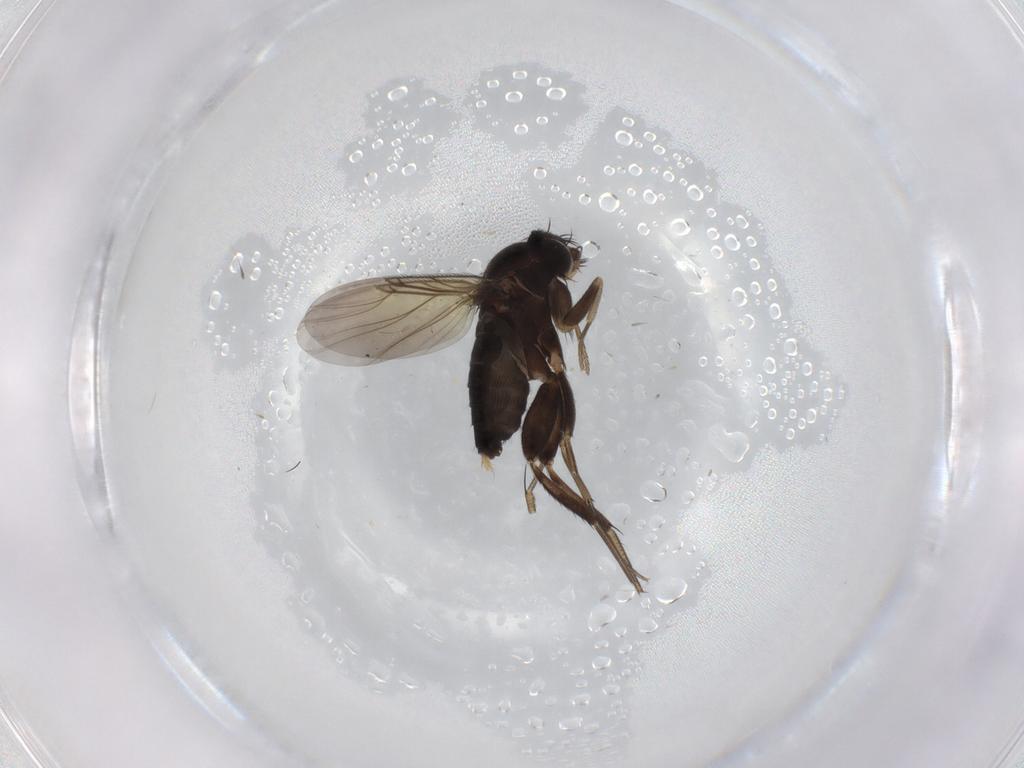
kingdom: Animalia
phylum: Arthropoda
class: Insecta
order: Diptera
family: Phoridae
